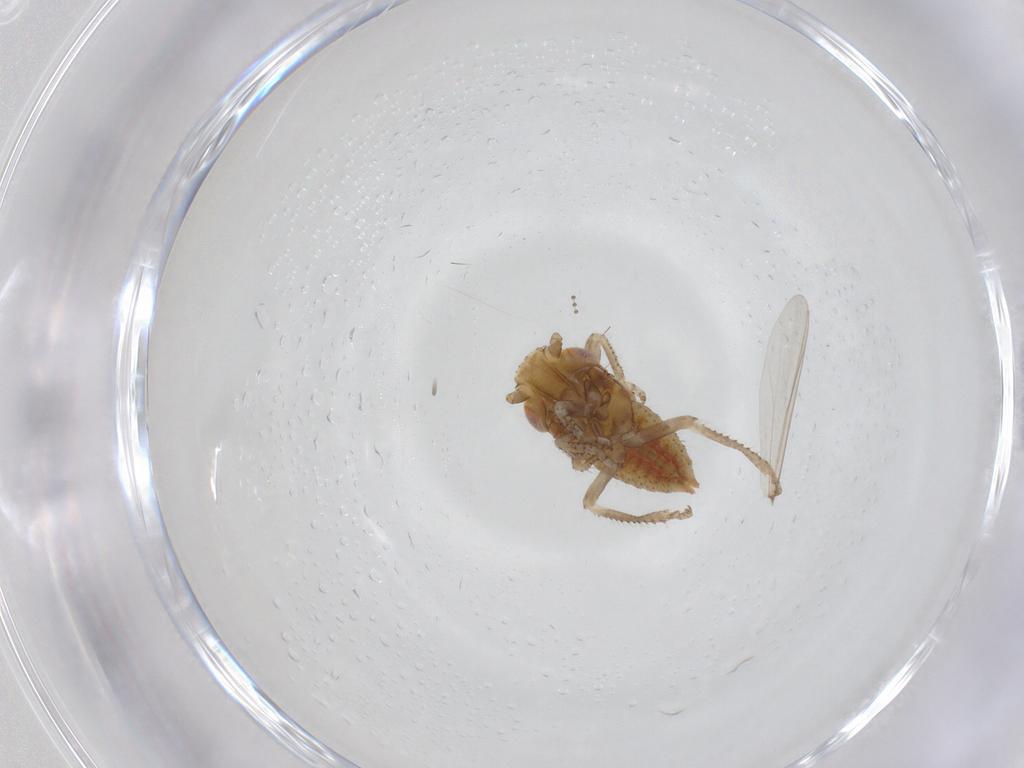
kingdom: Animalia
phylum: Arthropoda
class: Insecta
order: Hemiptera
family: Cicadellidae
